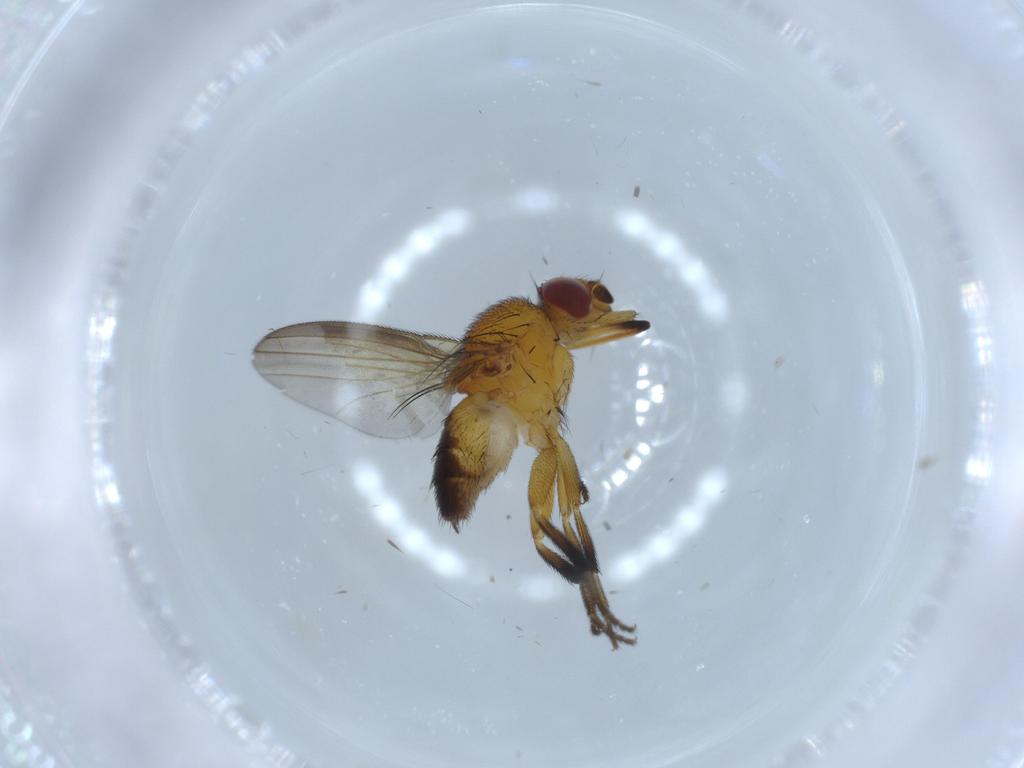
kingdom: Animalia
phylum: Arthropoda
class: Insecta
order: Diptera
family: Milichiidae
